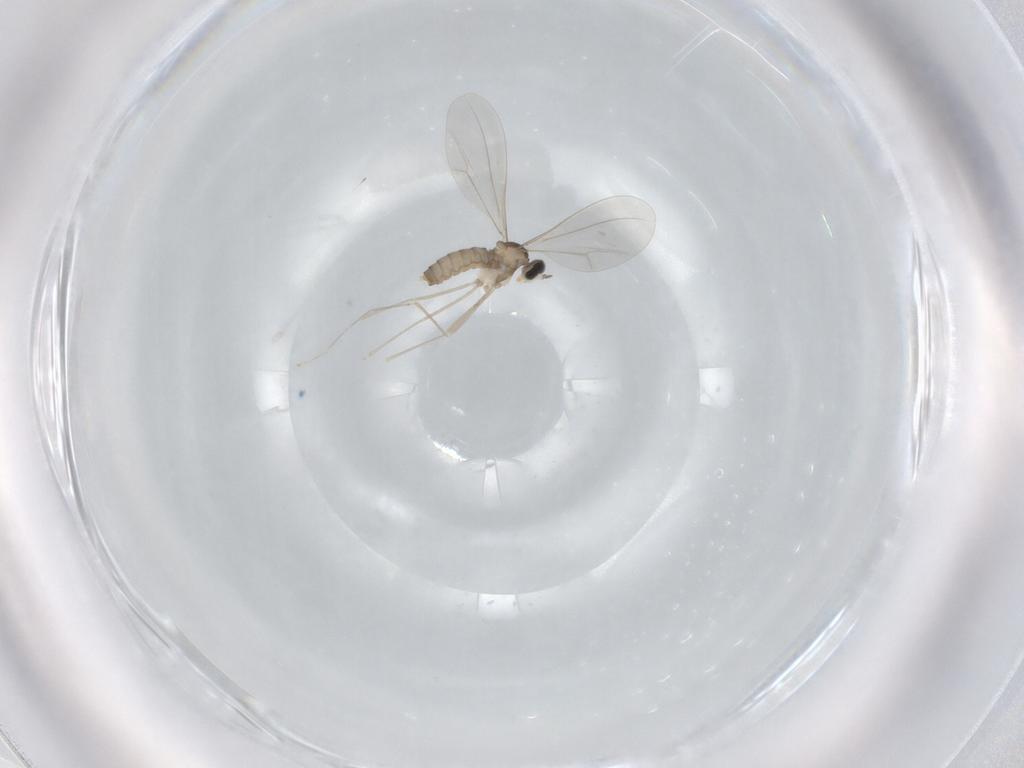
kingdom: Animalia
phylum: Arthropoda
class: Insecta
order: Diptera
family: Cecidomyiidae
